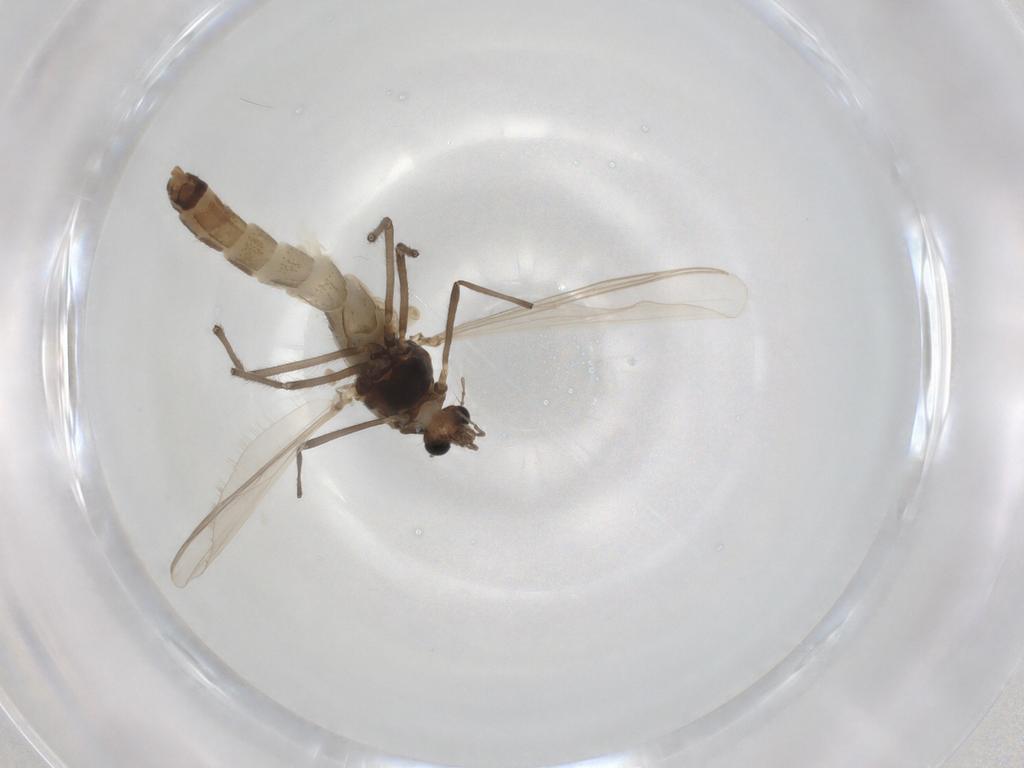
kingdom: Animalia
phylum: Arthropoda
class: Insecta
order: Diptera
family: Chironomidae
